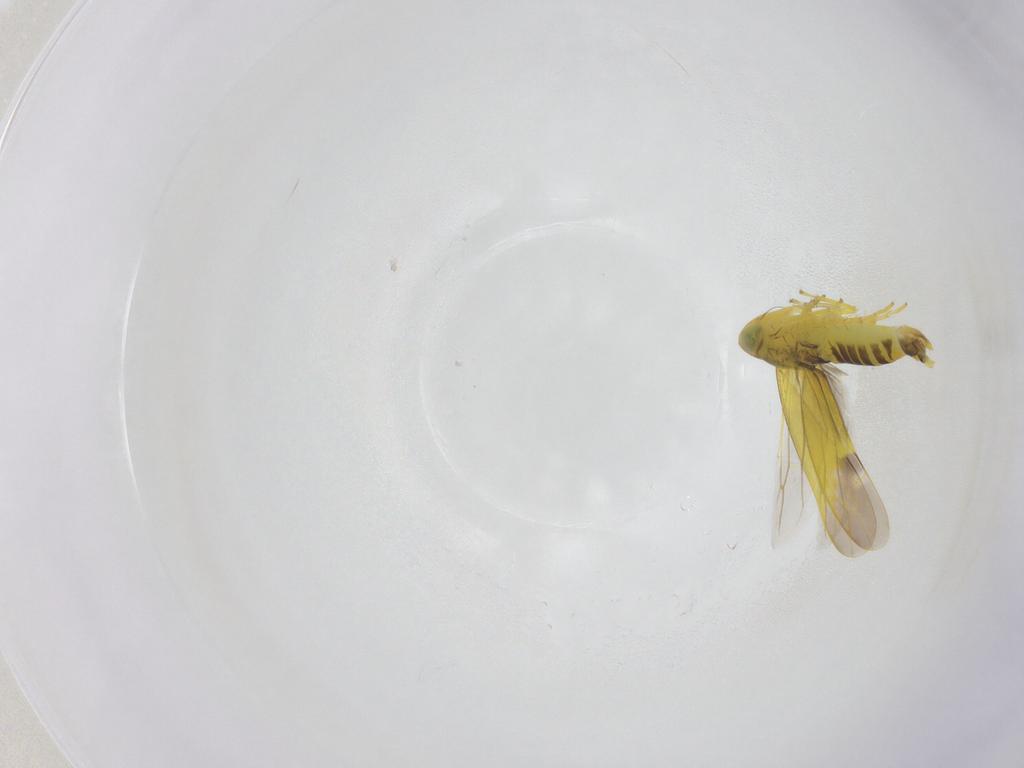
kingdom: Animalia
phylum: Arthropoda
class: Insecta
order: Hemiptera
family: Cicadellidae
